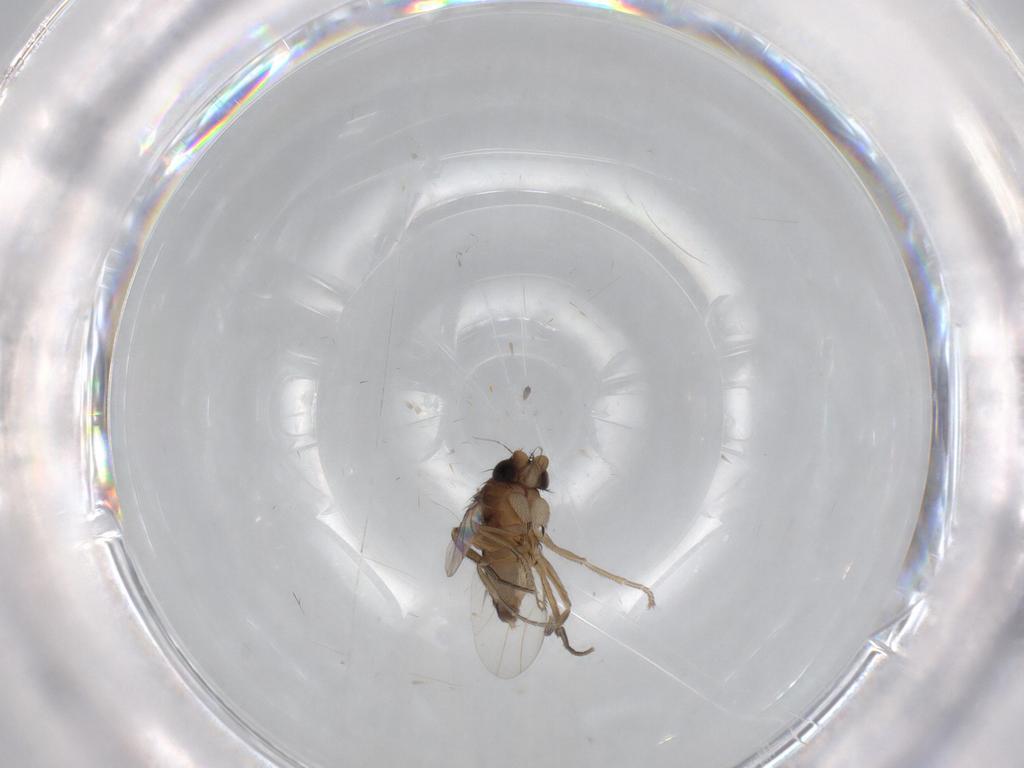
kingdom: Animalia
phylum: Arthropoda
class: Insecta
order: Diptera
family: Phoridae
